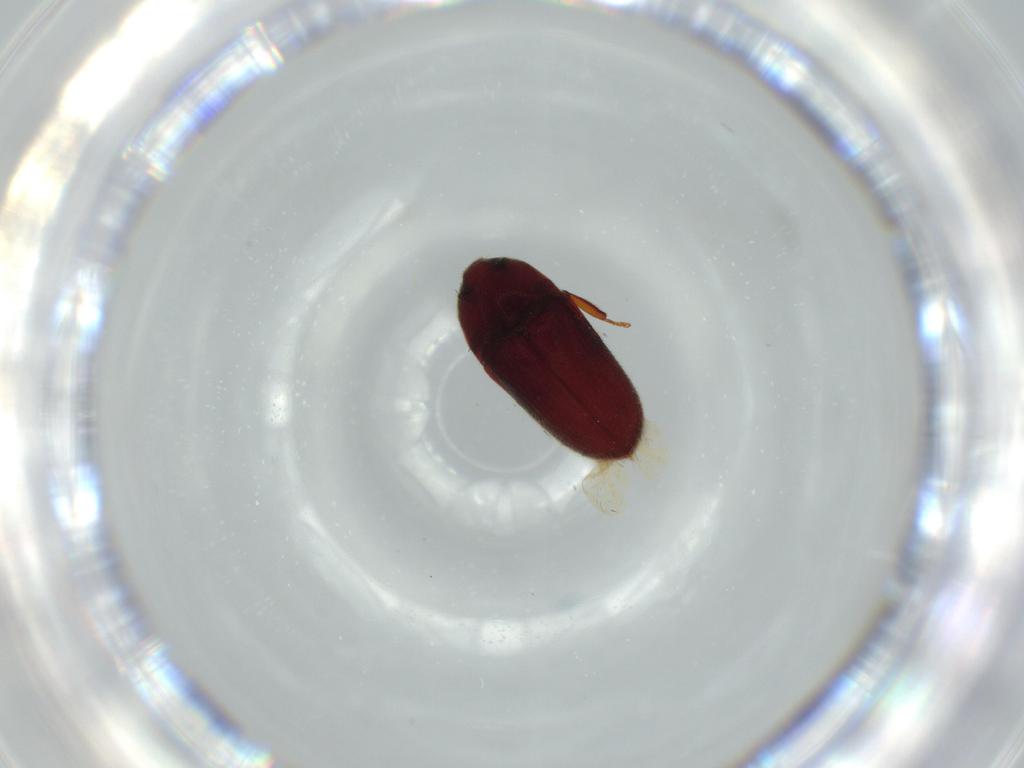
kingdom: Animalia
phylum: Arthropoda
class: Insecta
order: Coleoptera
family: Throscidae
